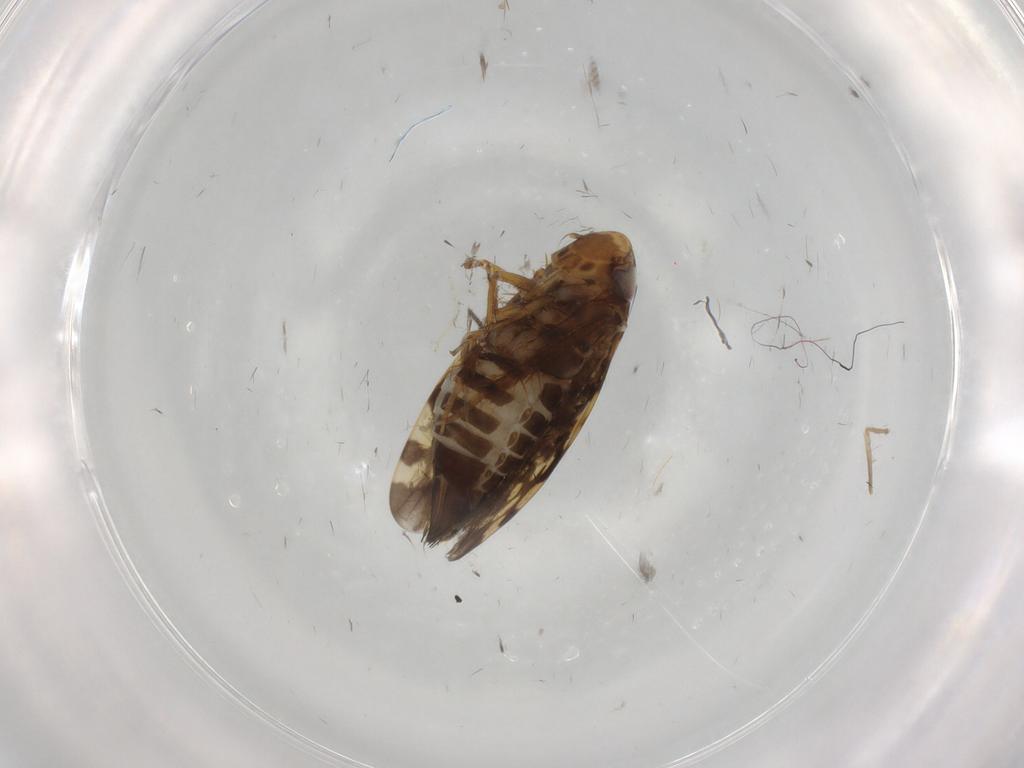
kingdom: Animalia
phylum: Arthropoda
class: Insecta
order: Hemiptera
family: Cicadellidae
